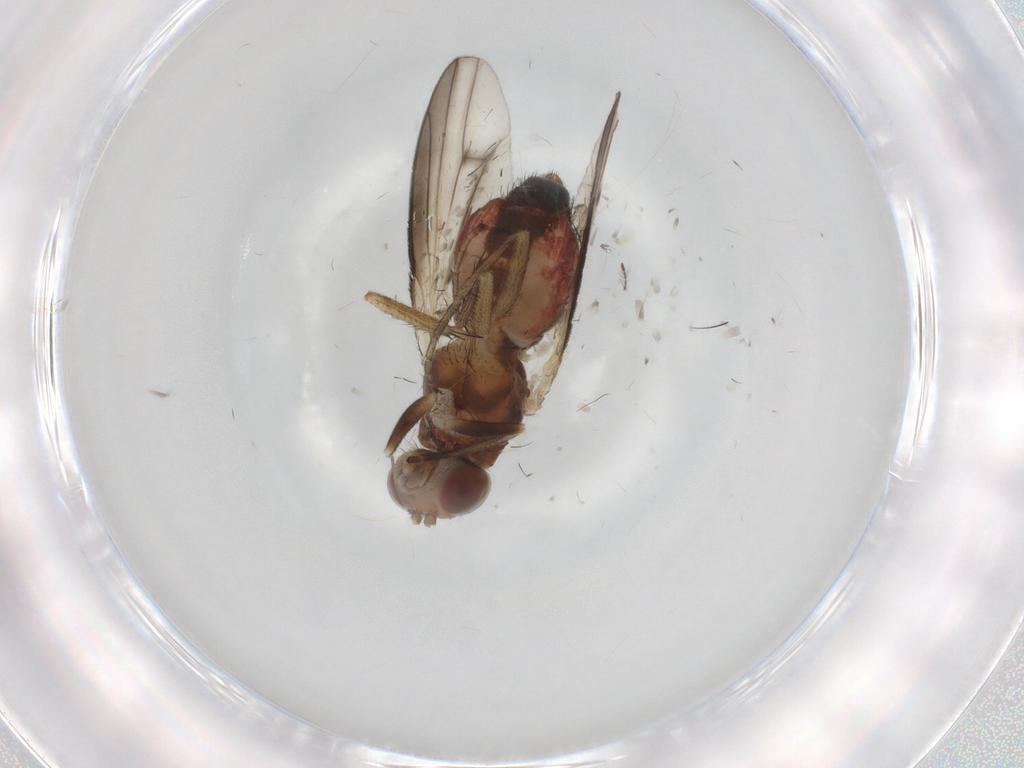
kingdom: Animalia
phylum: Arthropoda
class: Insecta
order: Diptera
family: Heleomyzidae
